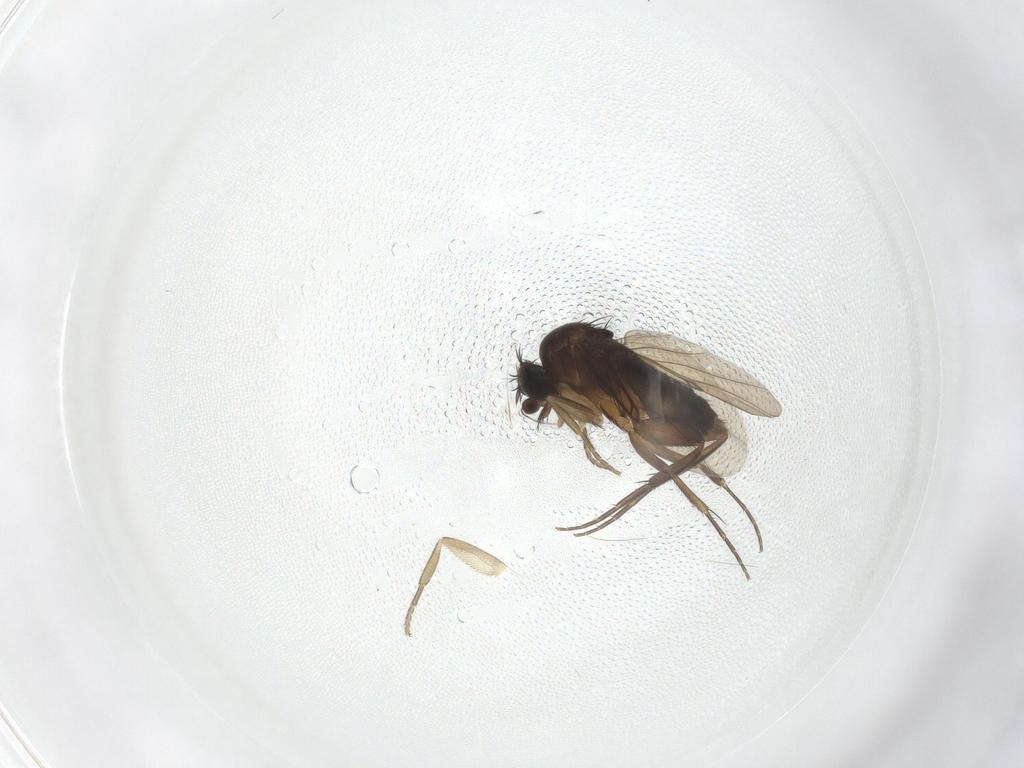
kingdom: Animalia
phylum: Arthropoda
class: Insecta
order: Diptera
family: Phoridae
